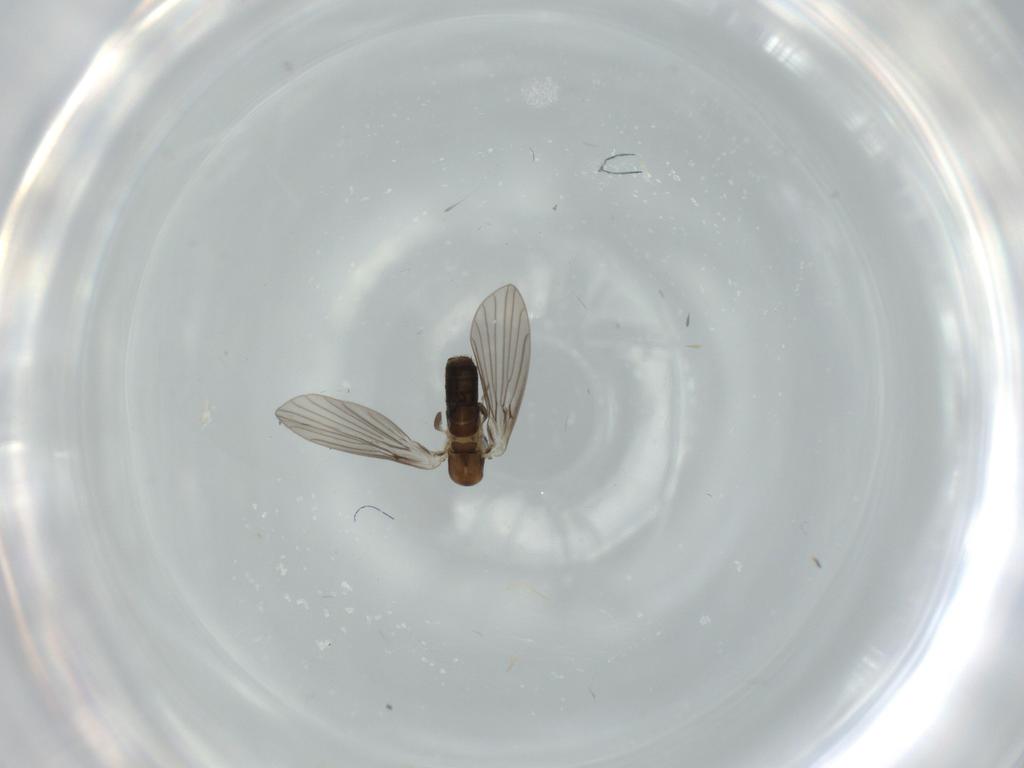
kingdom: Animalia
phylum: Arthropoda
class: Insecta
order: Diptera
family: Psychodidae
